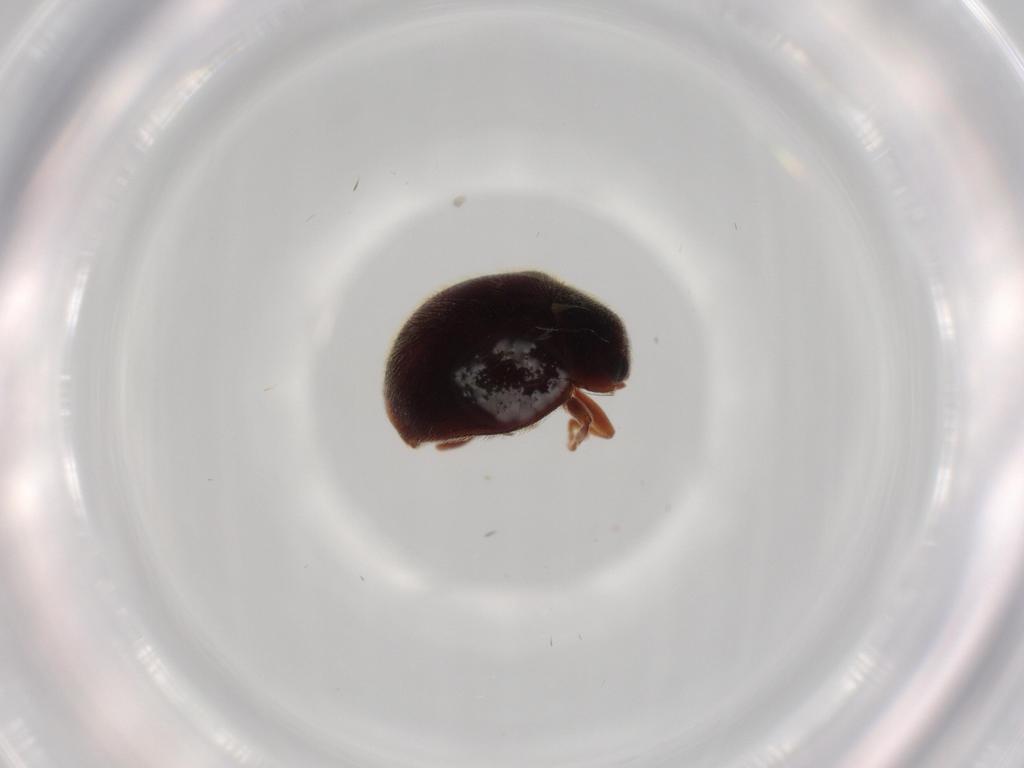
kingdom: Animalia
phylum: Arthropoda
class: Insecta
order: Coleoptera
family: Coccinellidae
